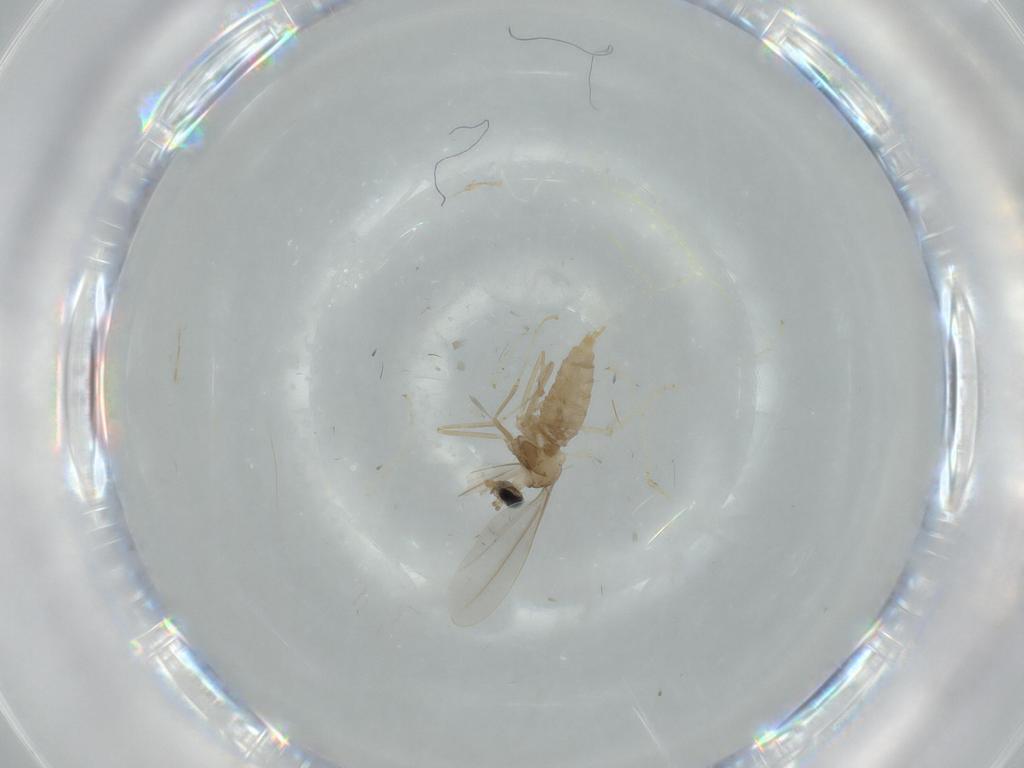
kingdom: Animalia
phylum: Arthropoda
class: Insecta
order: Diptera
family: Cecidomyiidae
